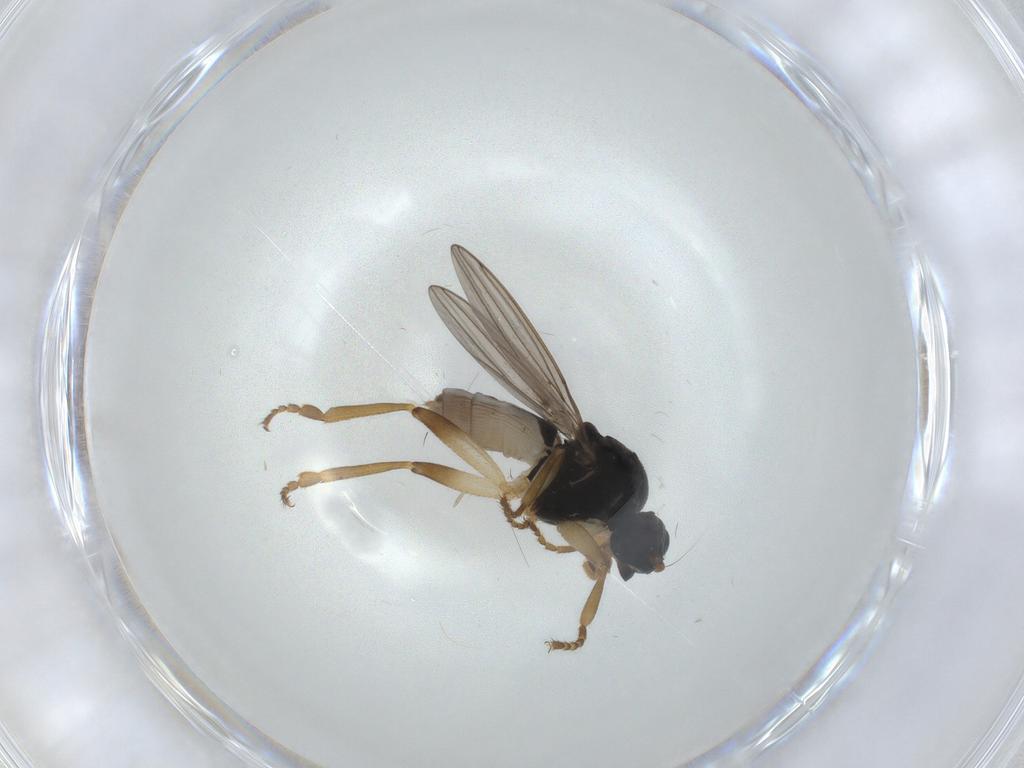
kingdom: Animalia
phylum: Arthropoda
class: Insecta
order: Diptera
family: Sphaeroceridae
